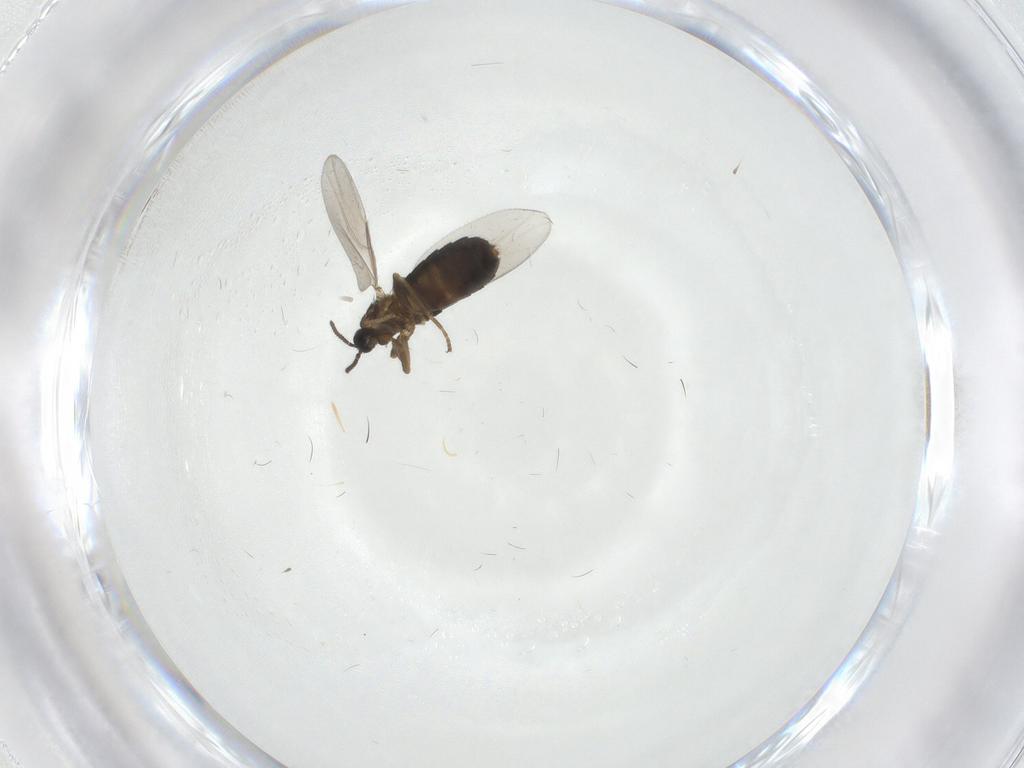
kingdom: Animalia
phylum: Arthropoda
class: Insecta
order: Diptera
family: Scatopsidae
